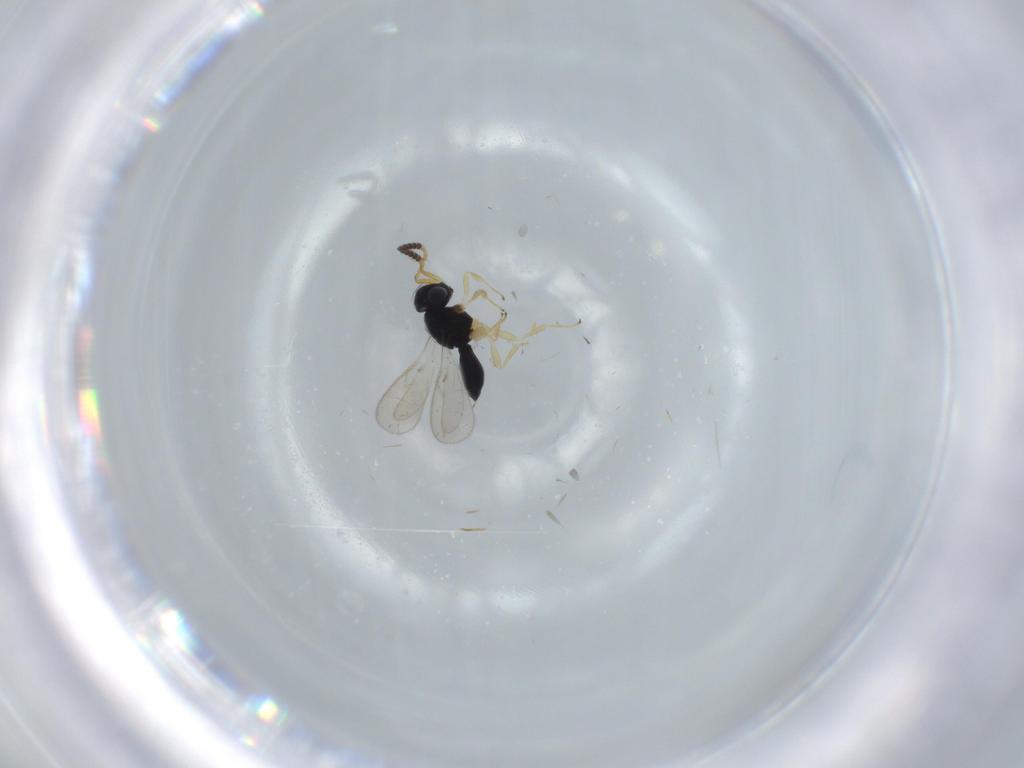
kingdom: Animalia
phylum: Arthropoda
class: Insecta
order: Hymenoptera
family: Scelionidae
